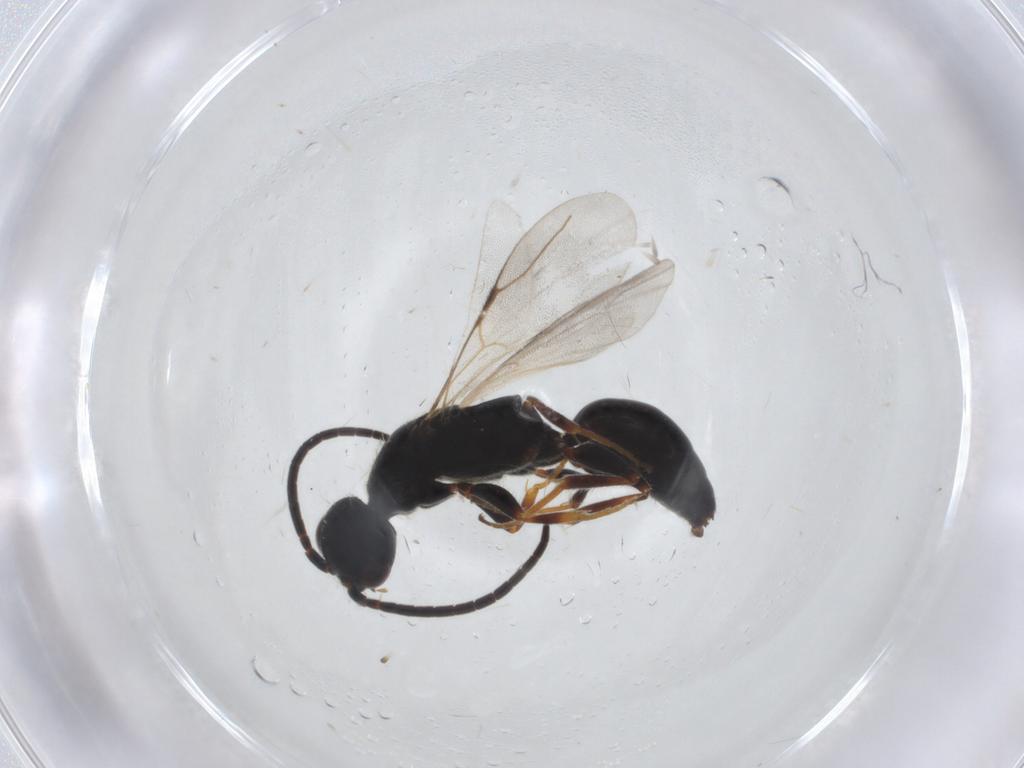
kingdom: Animalia
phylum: Arthropoda
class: Insecta
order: Hymenoptera
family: Bethylidae
